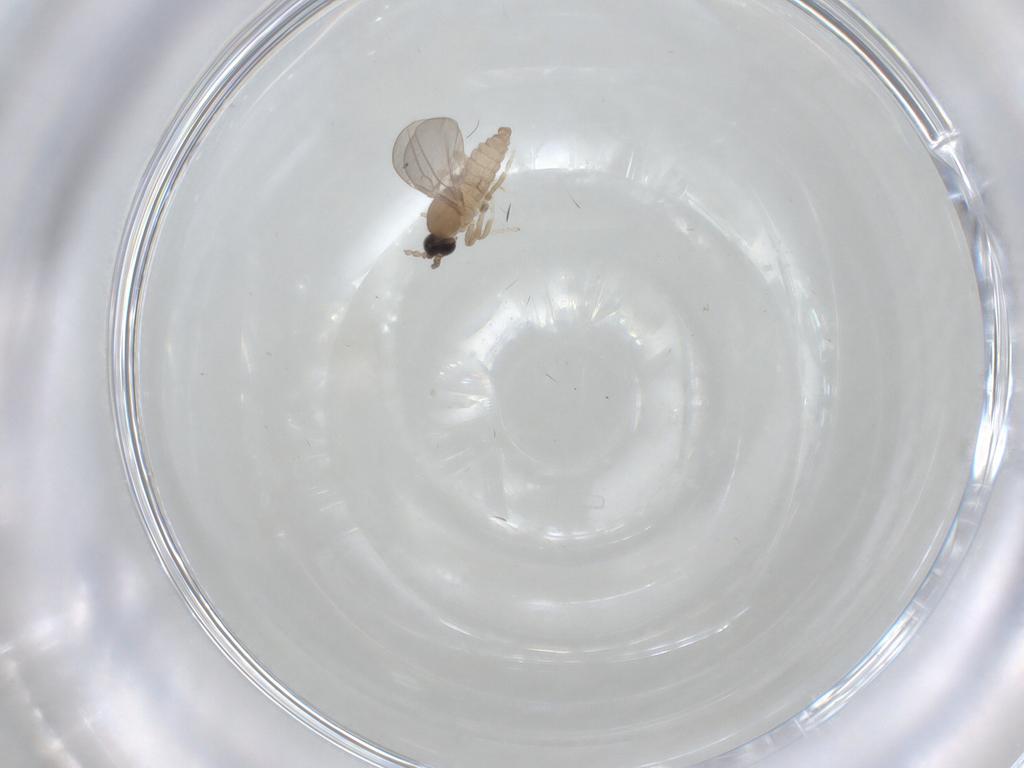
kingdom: Animalia
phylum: Arthropoda
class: Insecta
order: Diptera
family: Cecidomyiidae
